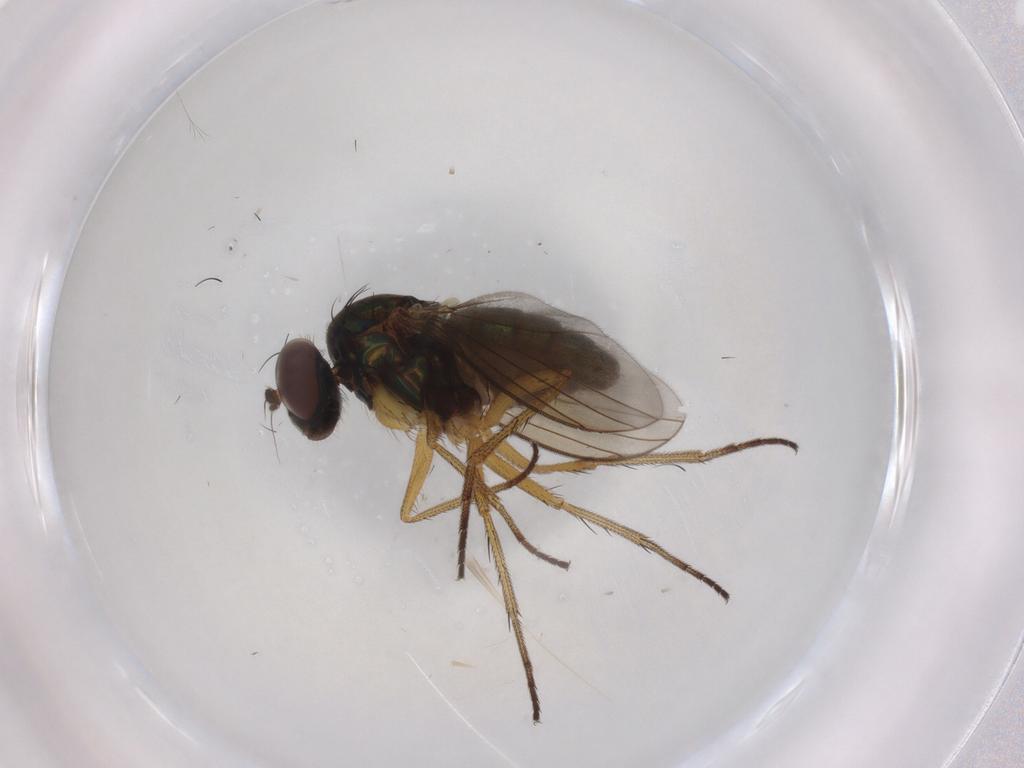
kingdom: Animalia
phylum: Arthropoda
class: Insecta
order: Diptera
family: Dolichopodidae
